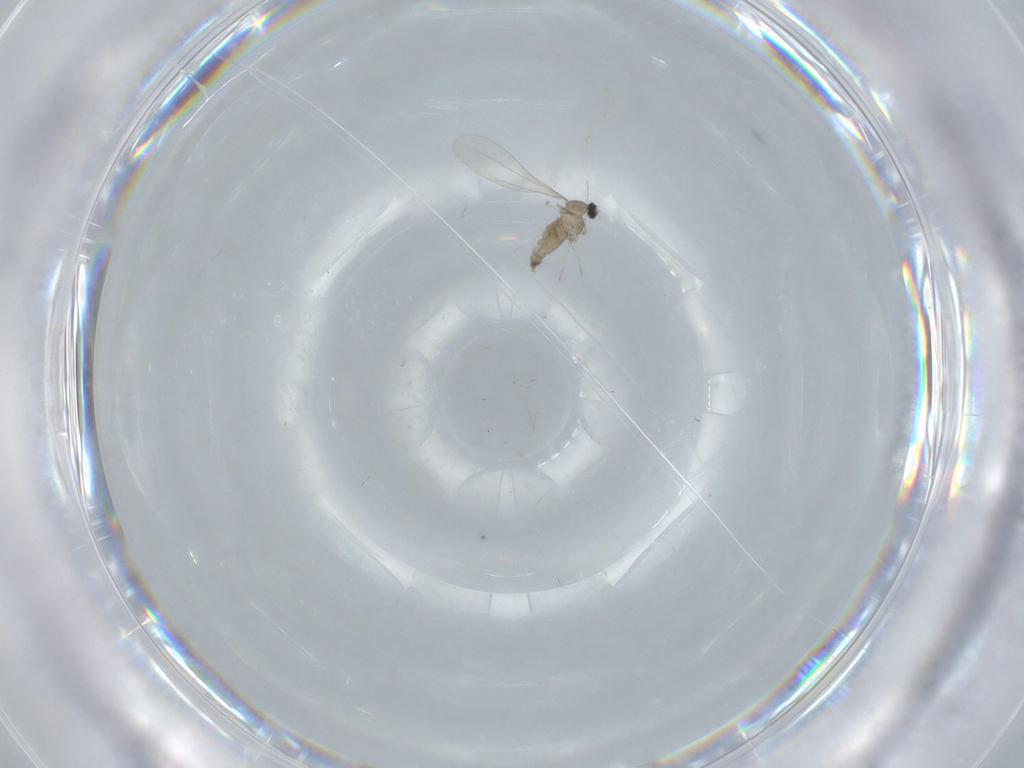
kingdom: Animalia
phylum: Arthropoda
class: Insecta
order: Diptera
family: Cecidomyiidae
